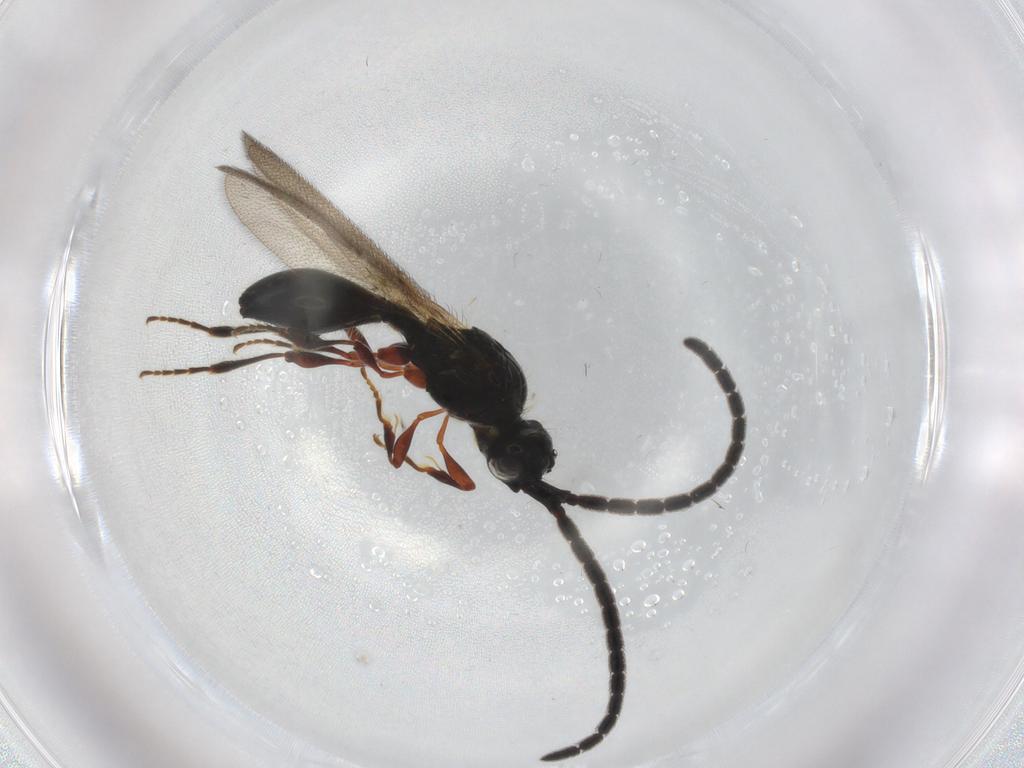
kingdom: Animalia
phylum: Arthropoda
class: Insecta
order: Hymenoptera
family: Diapriidae
